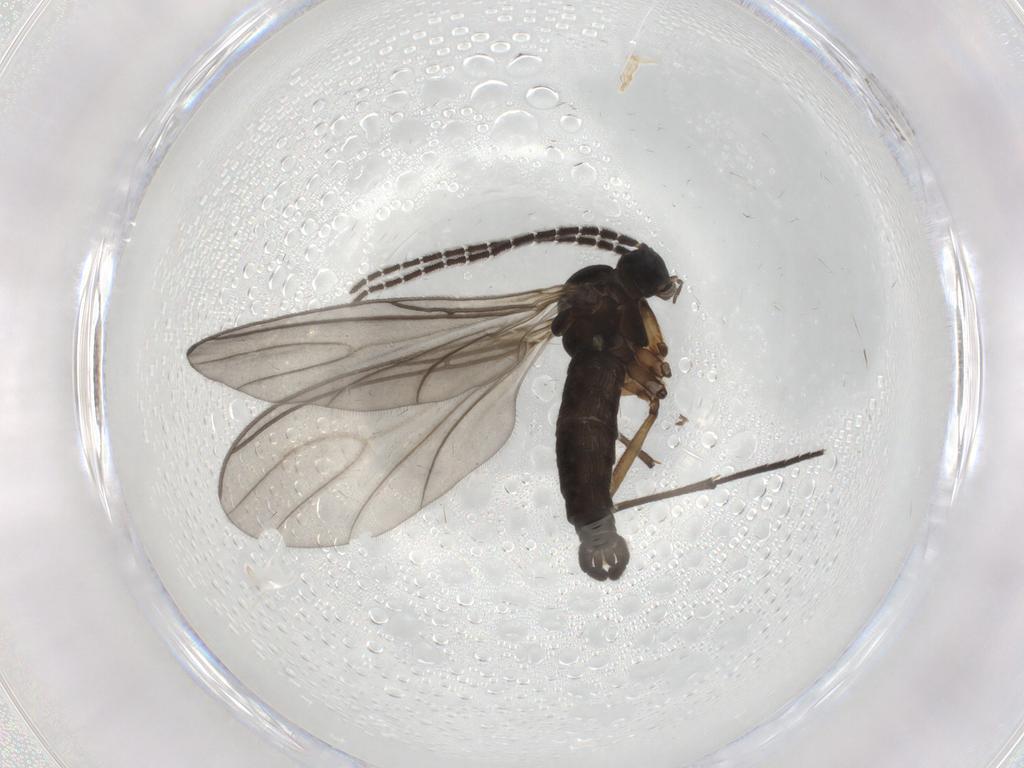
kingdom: Animalia
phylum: Arthropoda
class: Insecta
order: Diptera
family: Sciaridae
